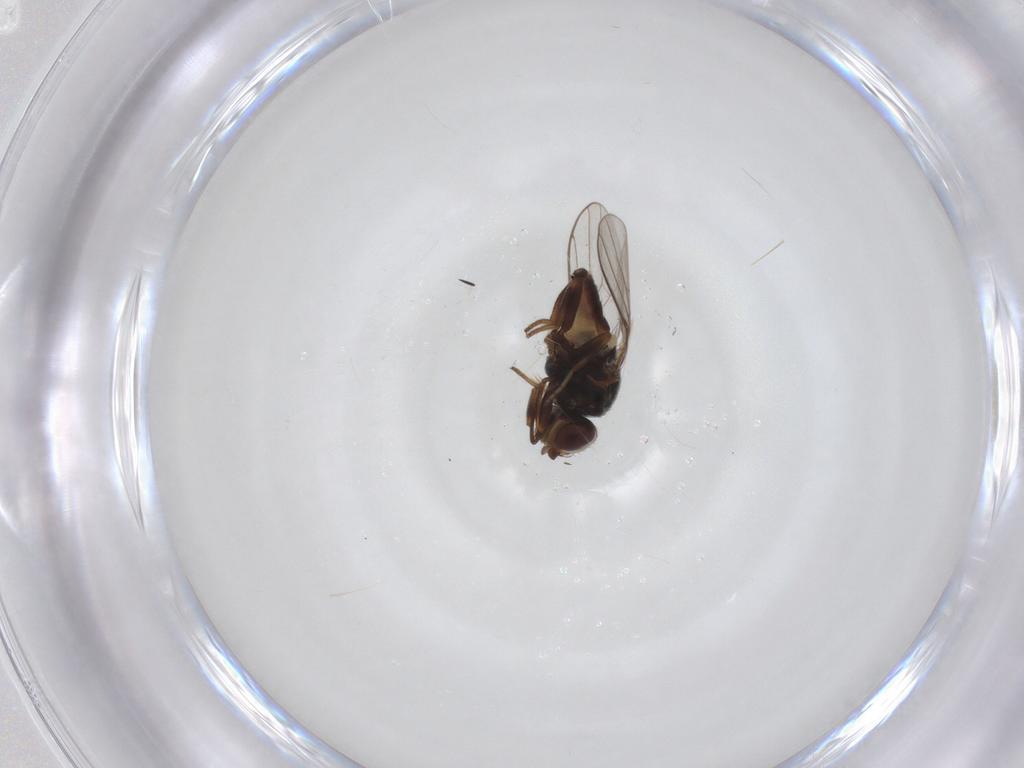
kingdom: Animalia
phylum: Arthropoda
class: Insecta
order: Diptera
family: Chloropidae
